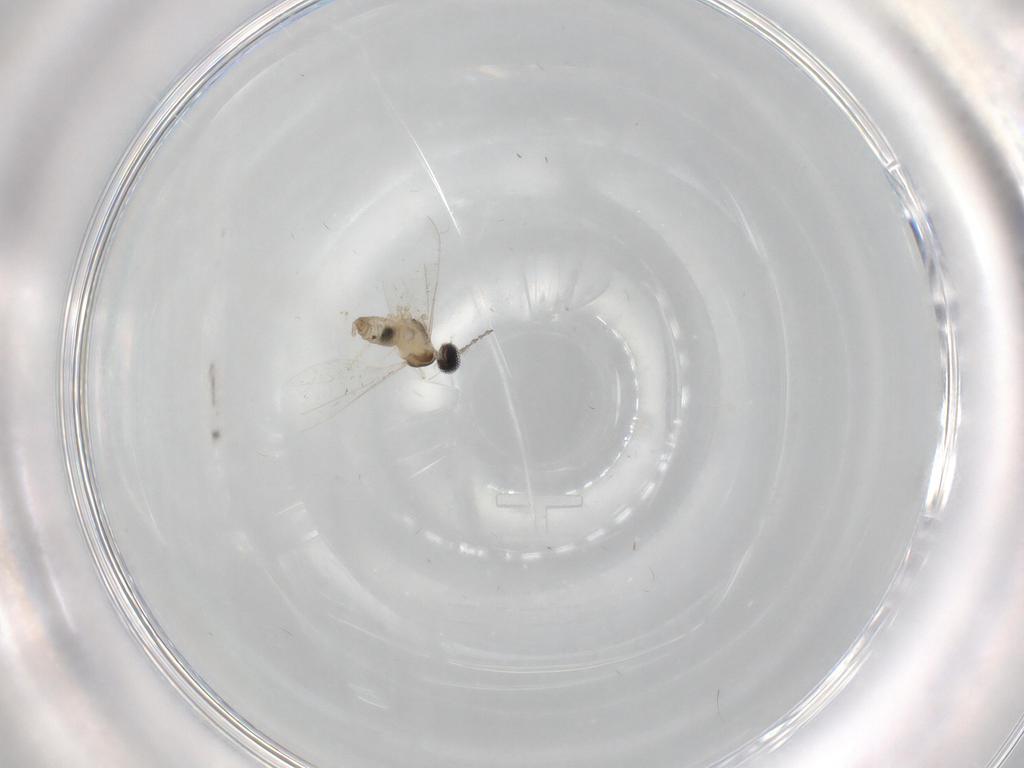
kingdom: Animalia
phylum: Arthropoda
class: Insecta
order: Diptera
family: Cecidomyiidae
